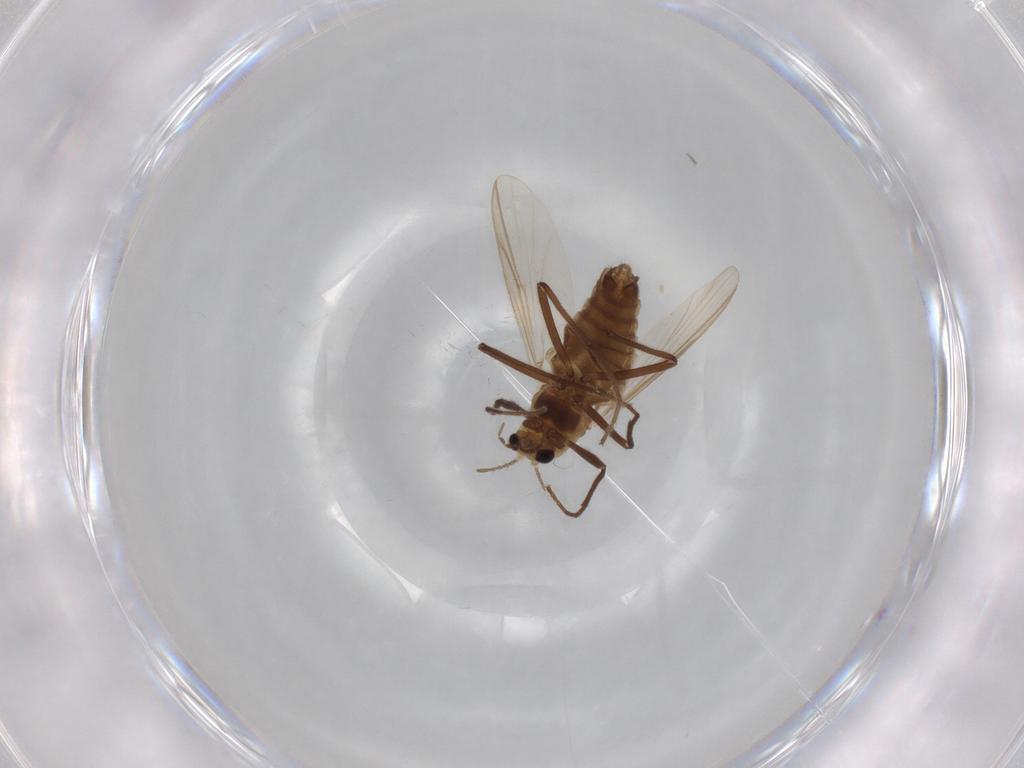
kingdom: Animalia
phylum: Arthropoda
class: Insecta
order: Diptera
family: Chironomidae
